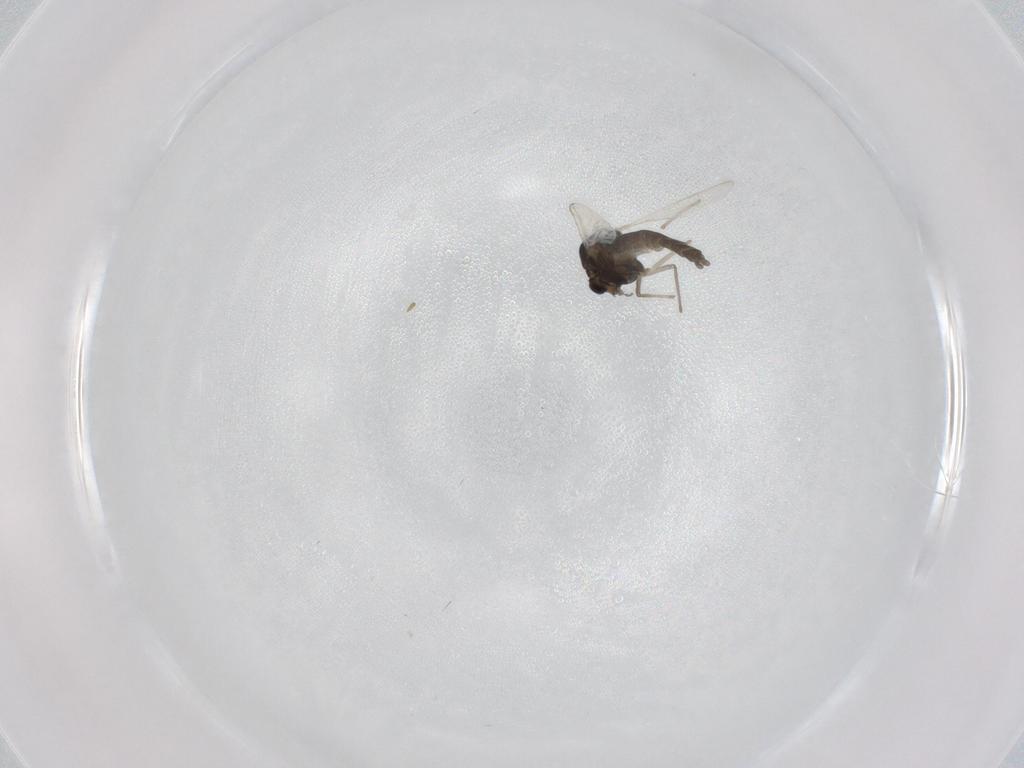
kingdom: Animalia
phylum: Arthropoda
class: Insecta
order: Diptera
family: Chironomidae
